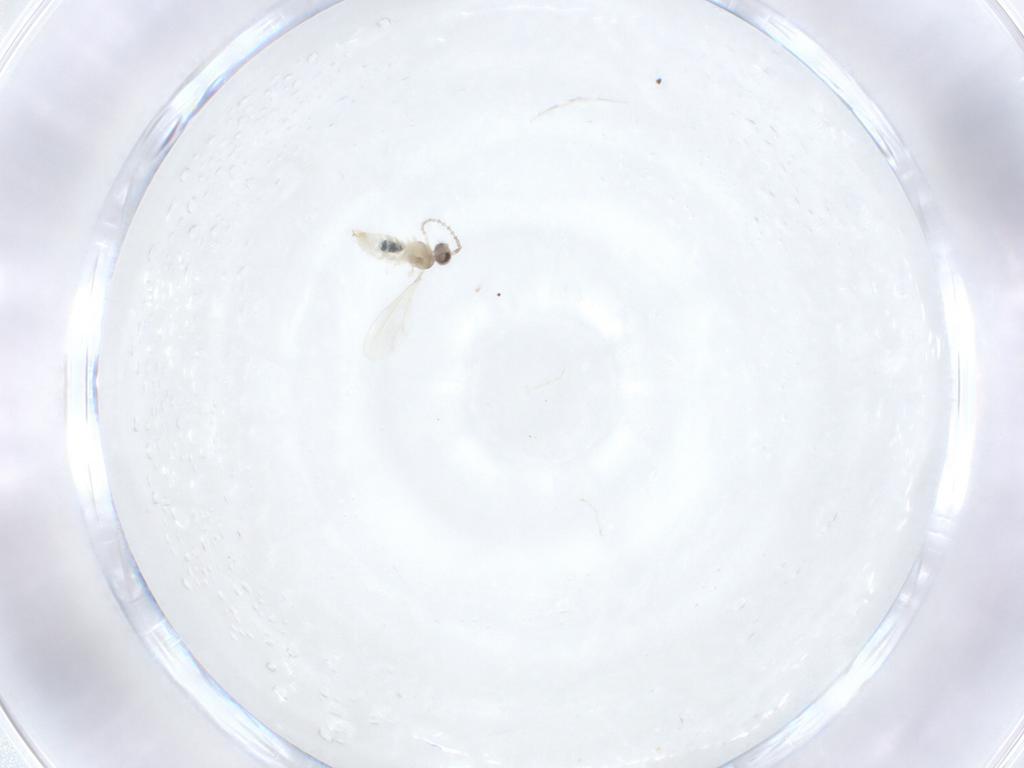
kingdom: Animalia
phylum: Arthropoda
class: Insecta
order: Diptera
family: Cecidomyiidae
